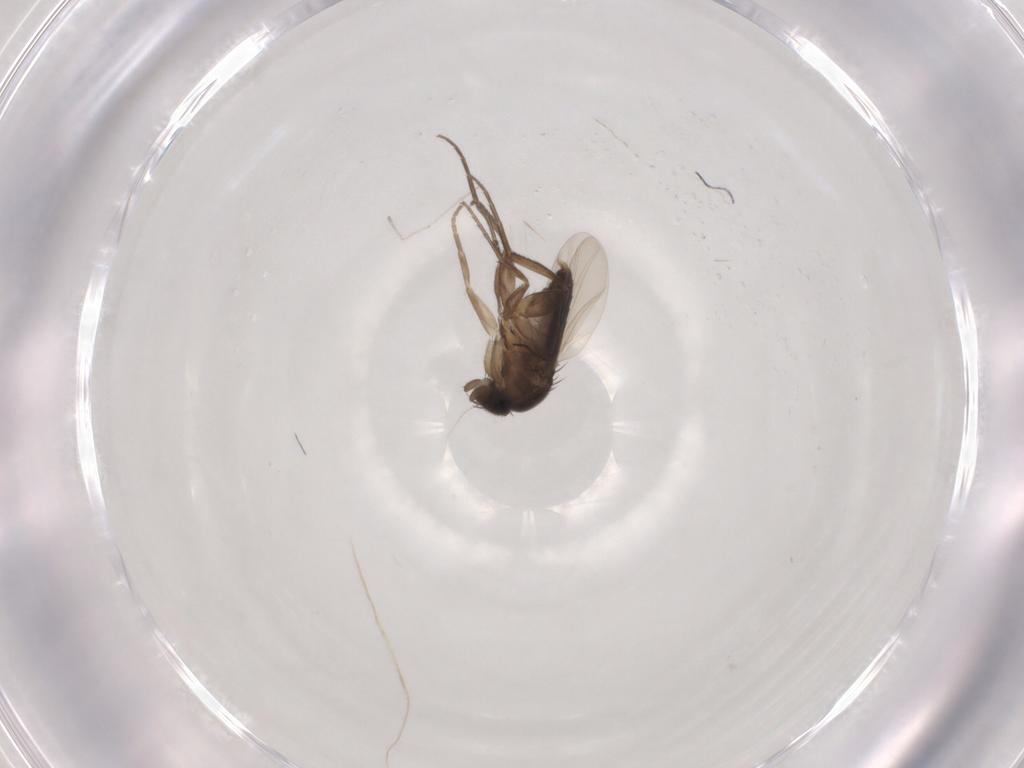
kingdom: Animalia
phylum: Arthropoda
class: Insecta
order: Diptera
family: Phoridae
